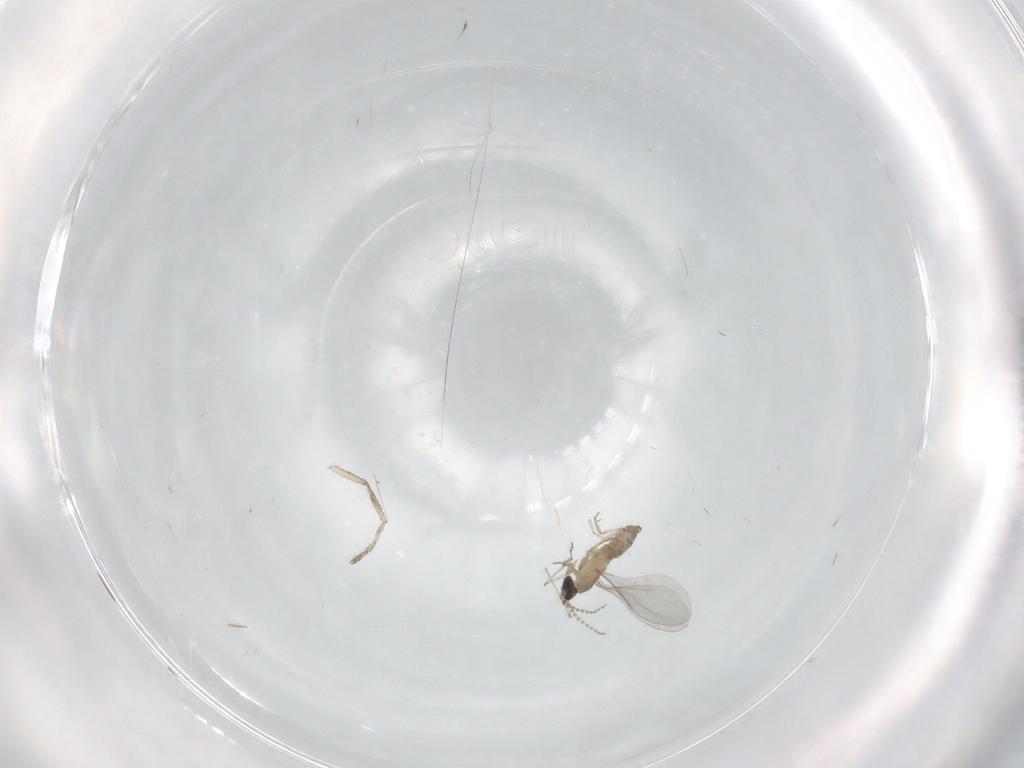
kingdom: Animalia
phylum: Arthropoda
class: Insecta
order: Diptera
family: Cecidomyiidae
